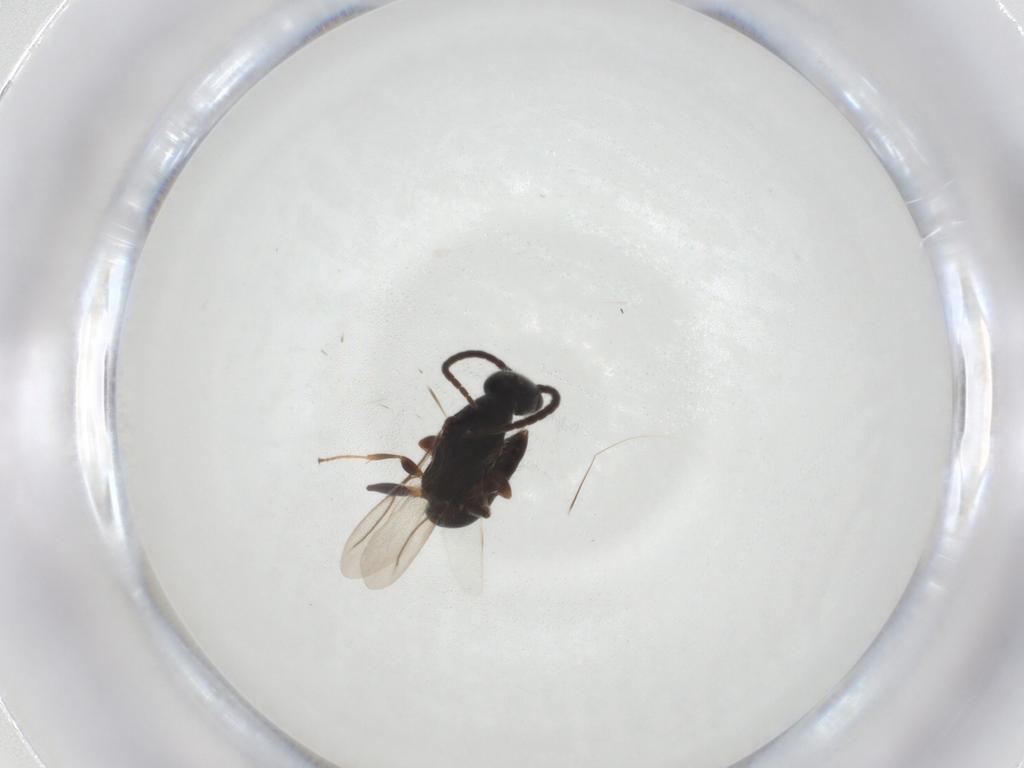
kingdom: Animalia
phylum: Arthropoda
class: Insecta
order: Hymenoptera
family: Bethylidae
